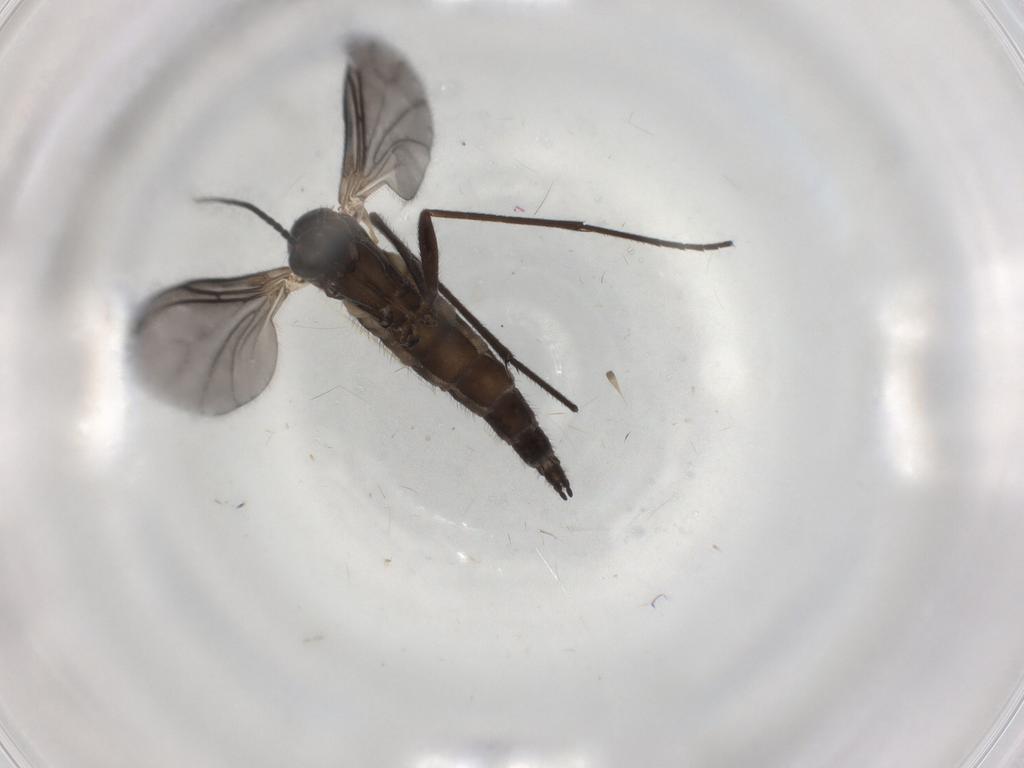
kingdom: Animalia
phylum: Arthropoda
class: Insecta
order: Diptera
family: Sciaridae
